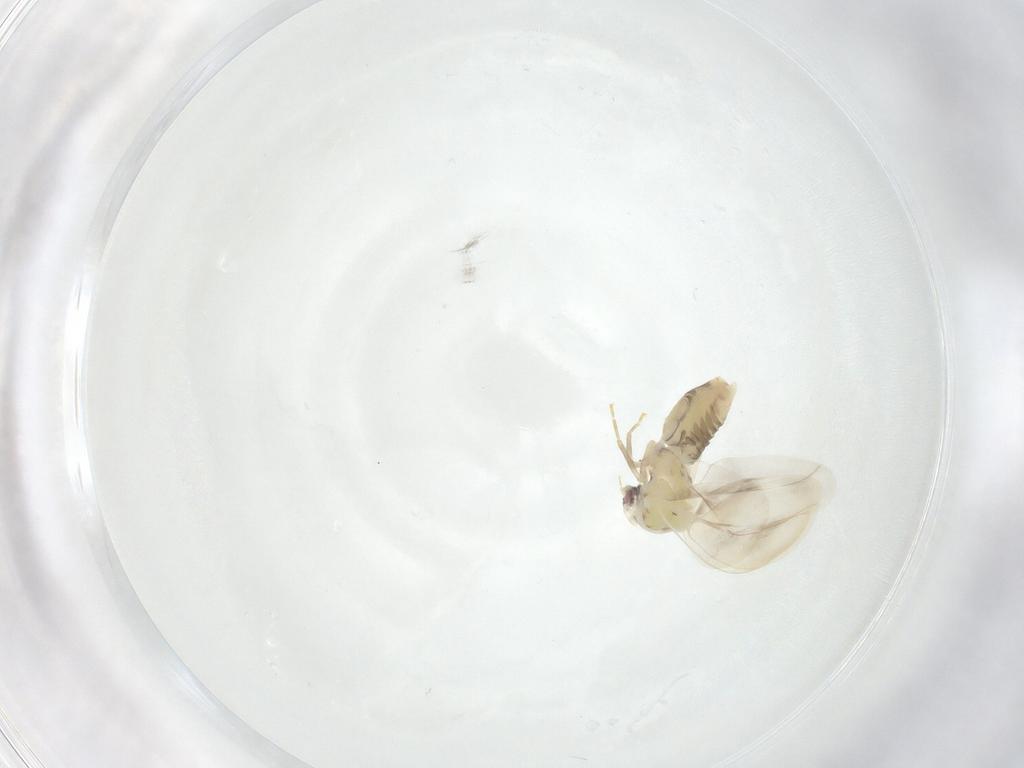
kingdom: Animalia
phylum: Arthropoda
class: Insecta
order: Hemiptera
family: Aleyrodidae
